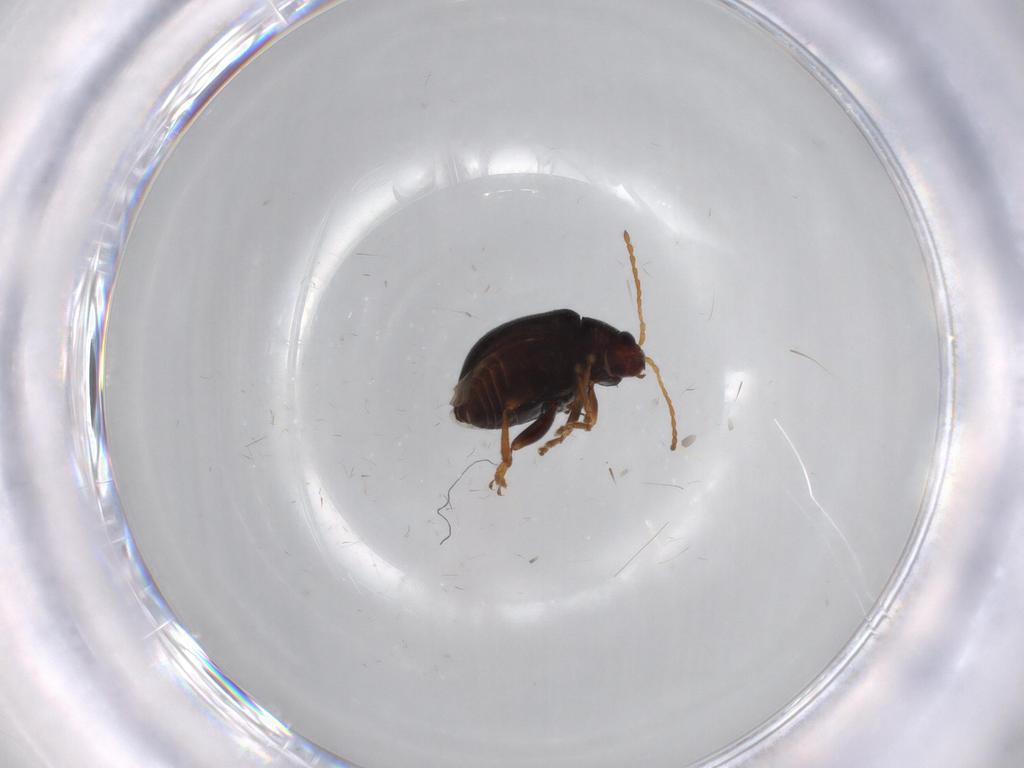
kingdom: Animalia
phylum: Arthropoda
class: Insecta
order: Coleoptera
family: Chrysomelidae
